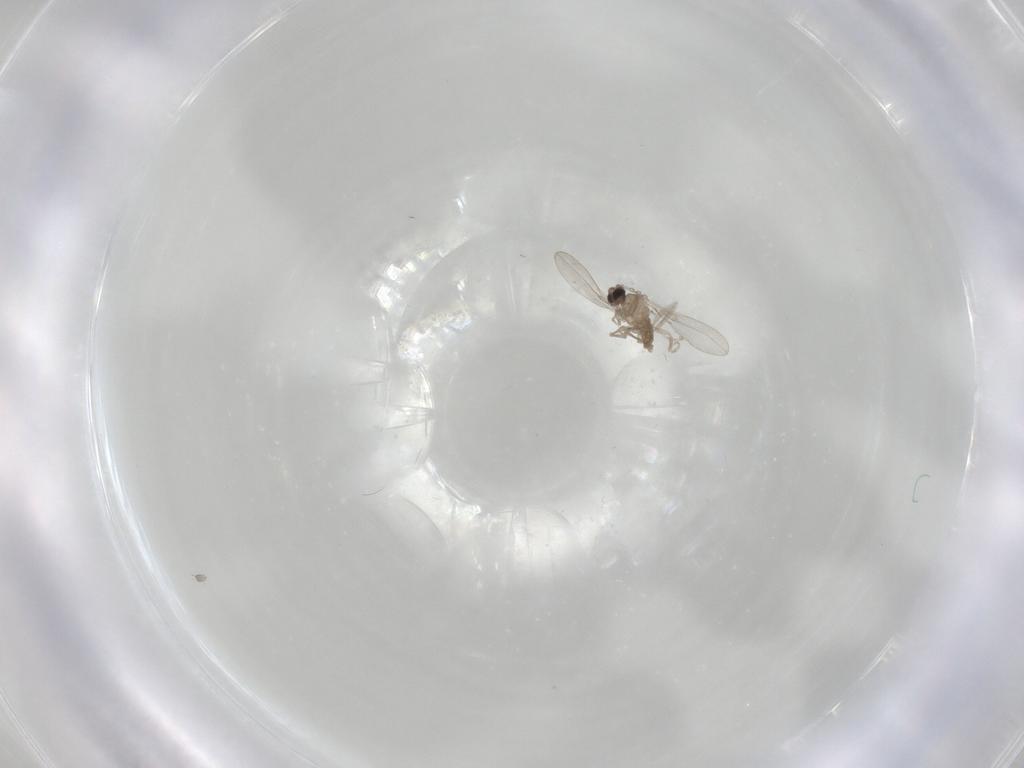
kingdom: Animalia
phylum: Arthropoda
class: Insecta
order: Diptera
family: Cecidomyiidae
